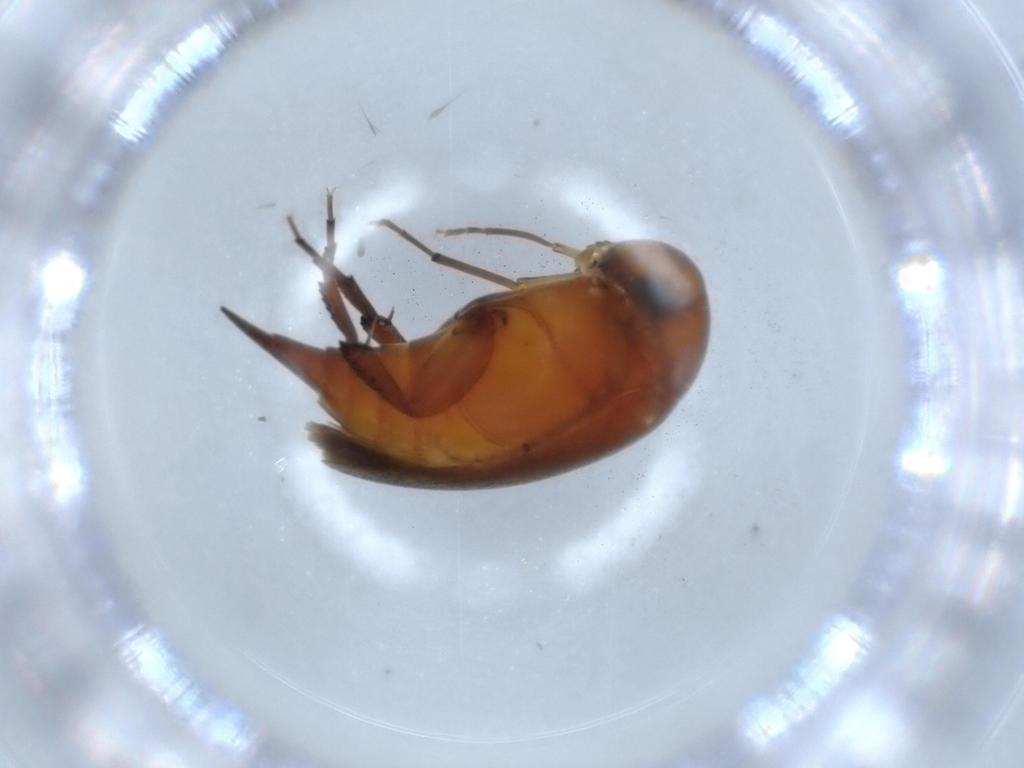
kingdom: Animalia
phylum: Arthropoda
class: Insecta
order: Coleoptera
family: Mordellidae
